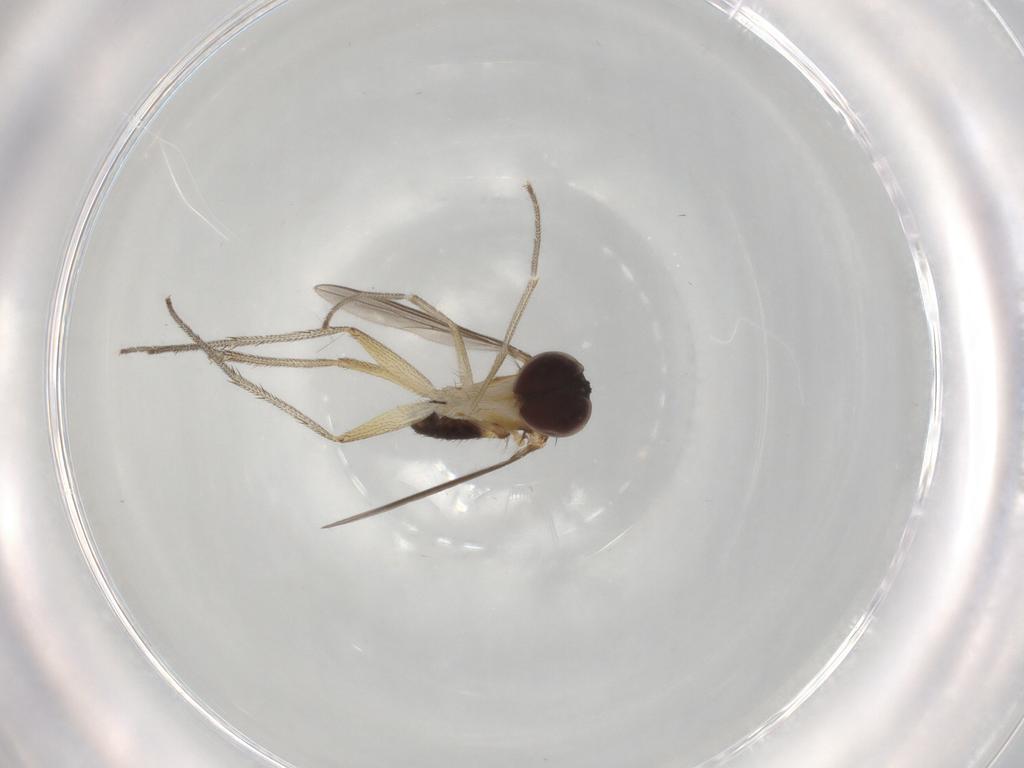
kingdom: Animalia
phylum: Arthropoda
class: Insecta
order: Diptera
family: Dolichopodidae
